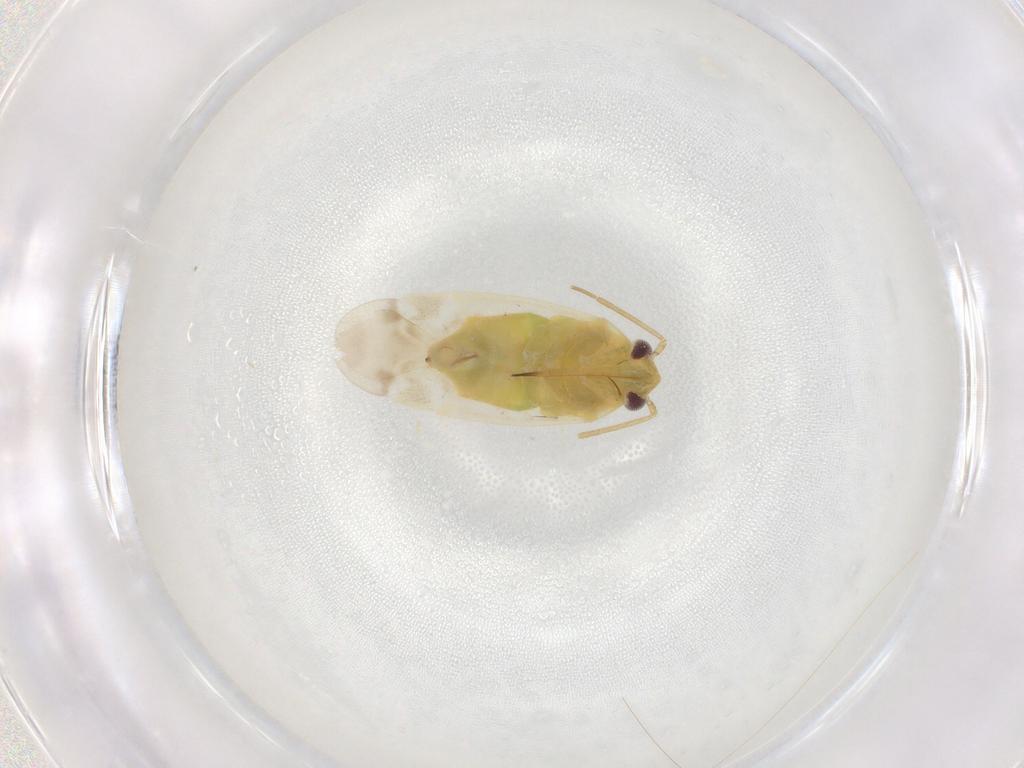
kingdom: Animalia
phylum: Arthropoda
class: Insecta
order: Hemiptera
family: Miridae
